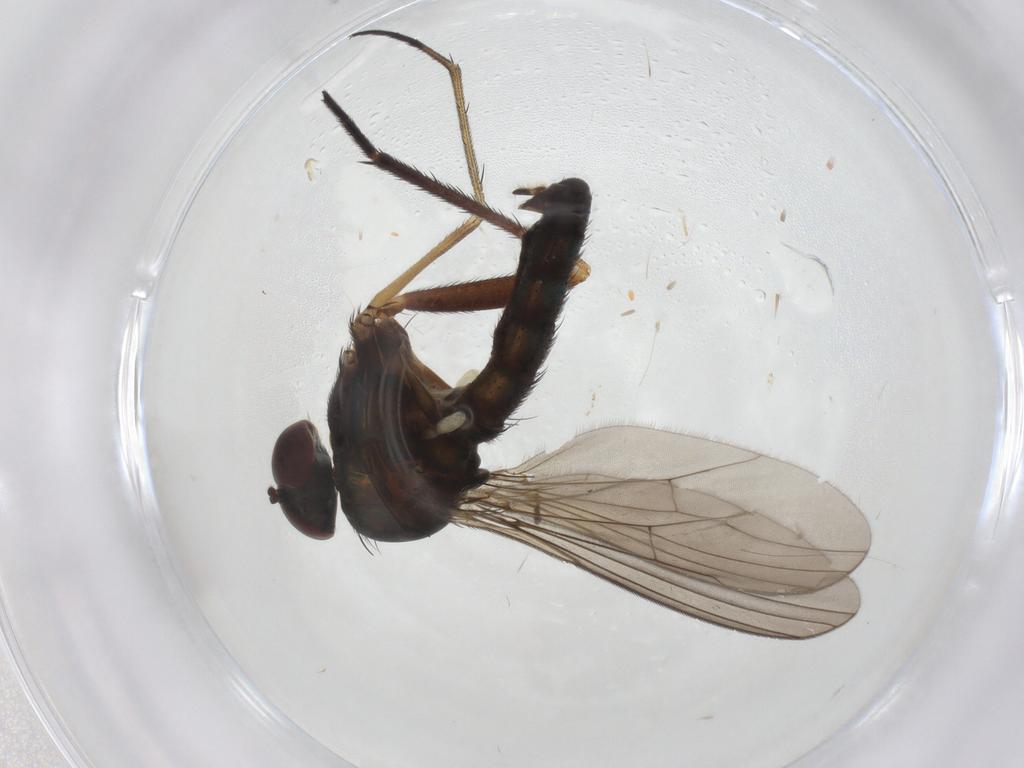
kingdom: Animalia
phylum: Arthropoda
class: Insecta
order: Diptera
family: Dolichopodidae
